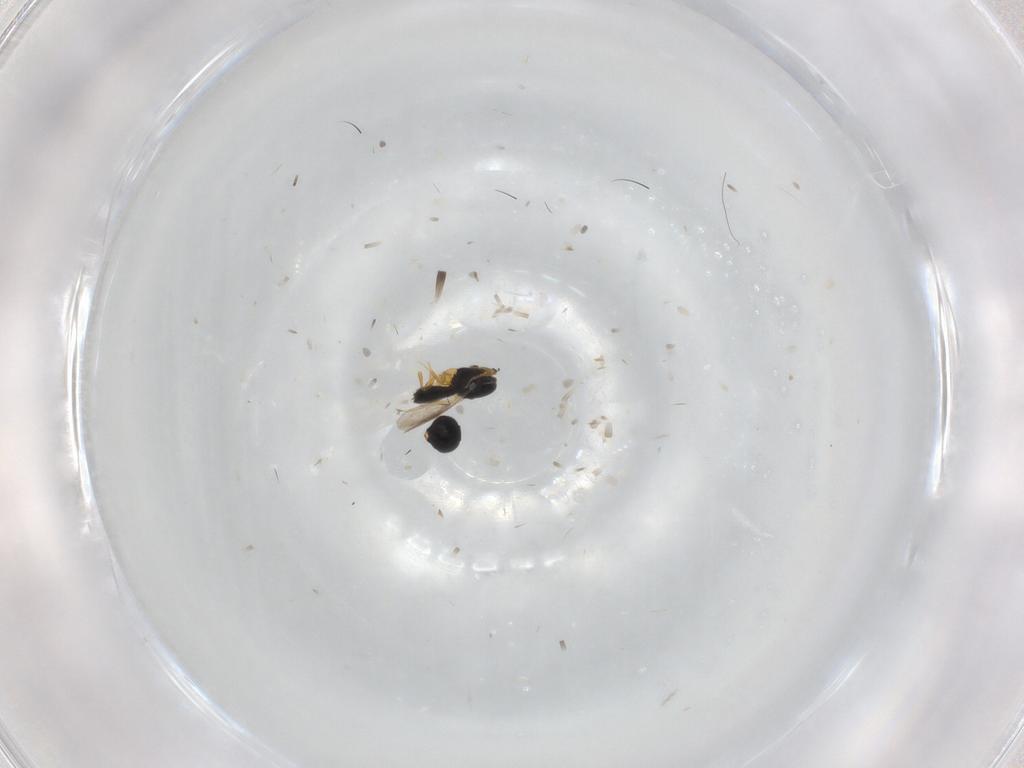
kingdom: Animalia
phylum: Arthropoda
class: Insecta
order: Hymenoptera
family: Scelionidae
